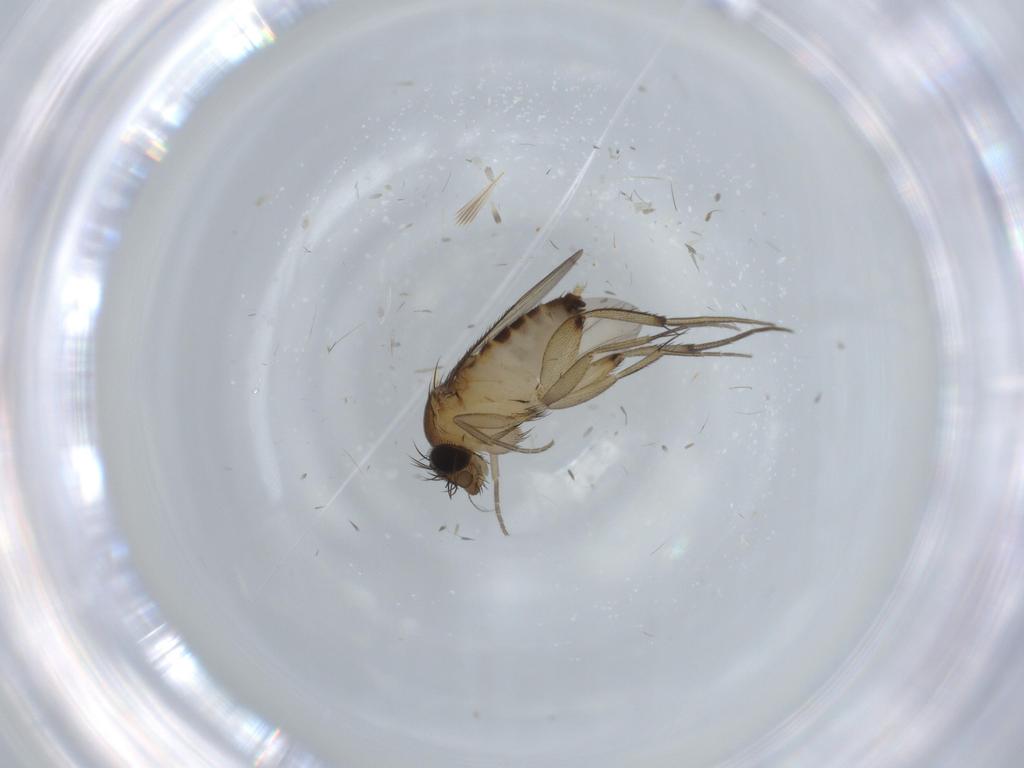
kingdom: Animalia
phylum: Arthropoda
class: Insecta
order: Diptera
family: Phoridae
